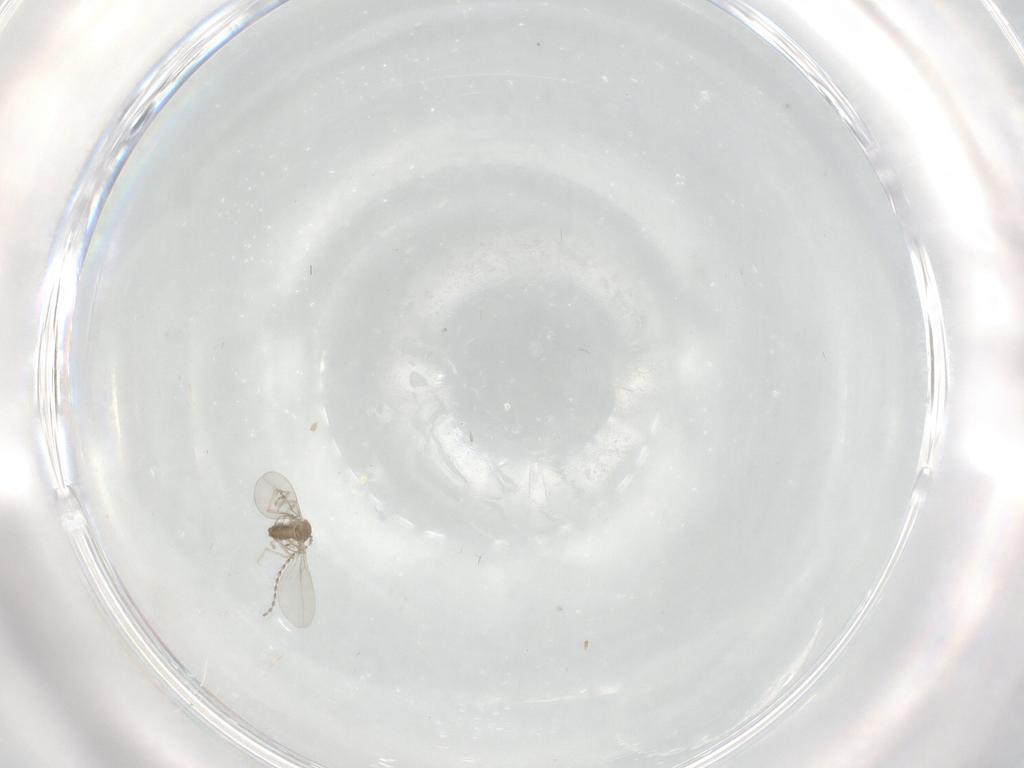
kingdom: Animalia
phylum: Arthropoda
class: Insecta
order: Diptera
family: Cecidomyiidae
